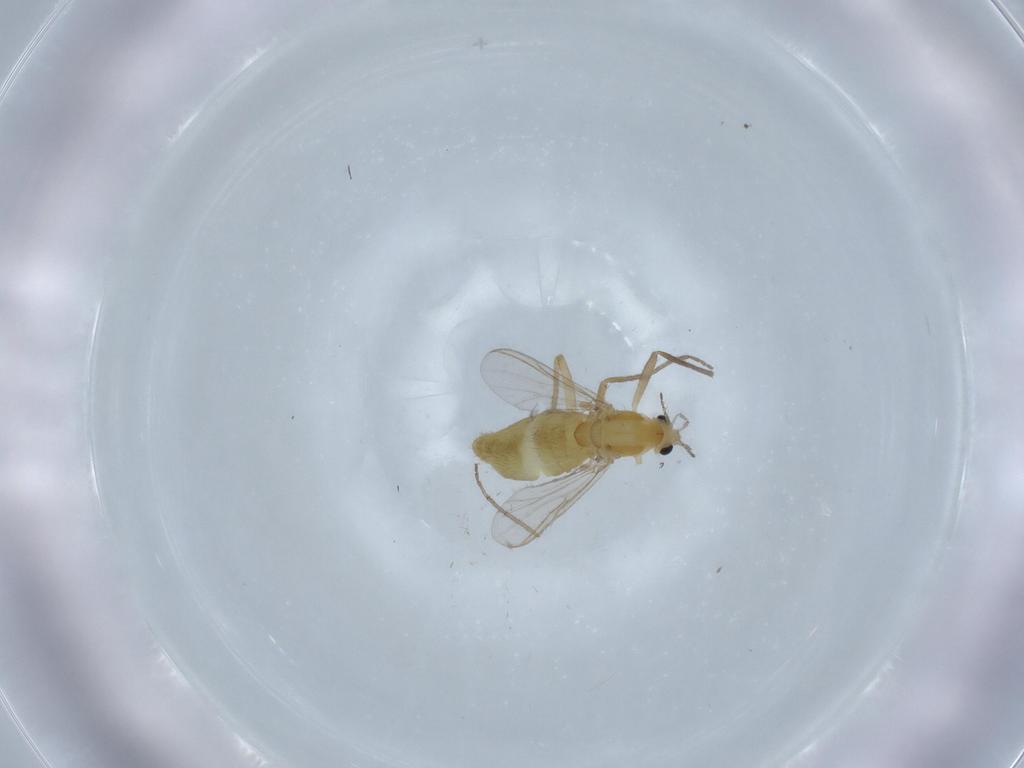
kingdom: Animalia
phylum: Arthropoda
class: Insecta
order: Diptera
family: Chironomidae
